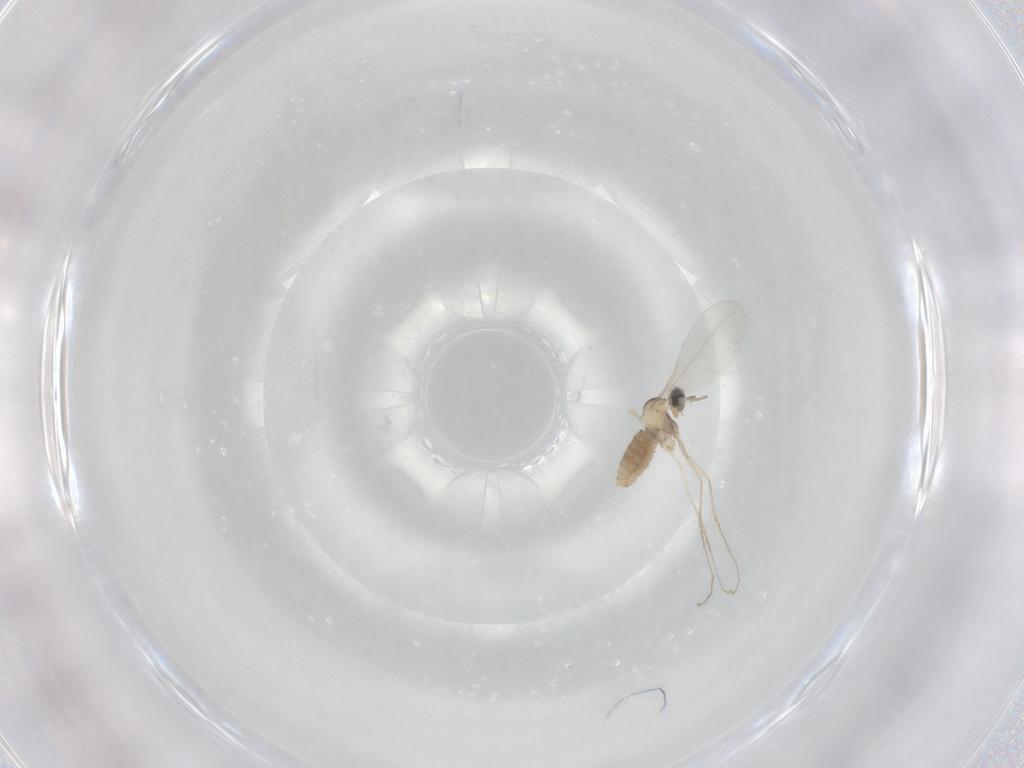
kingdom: Animalia
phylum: Arthropoda
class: Insecta
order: Diptera
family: Cecidomyiidae
